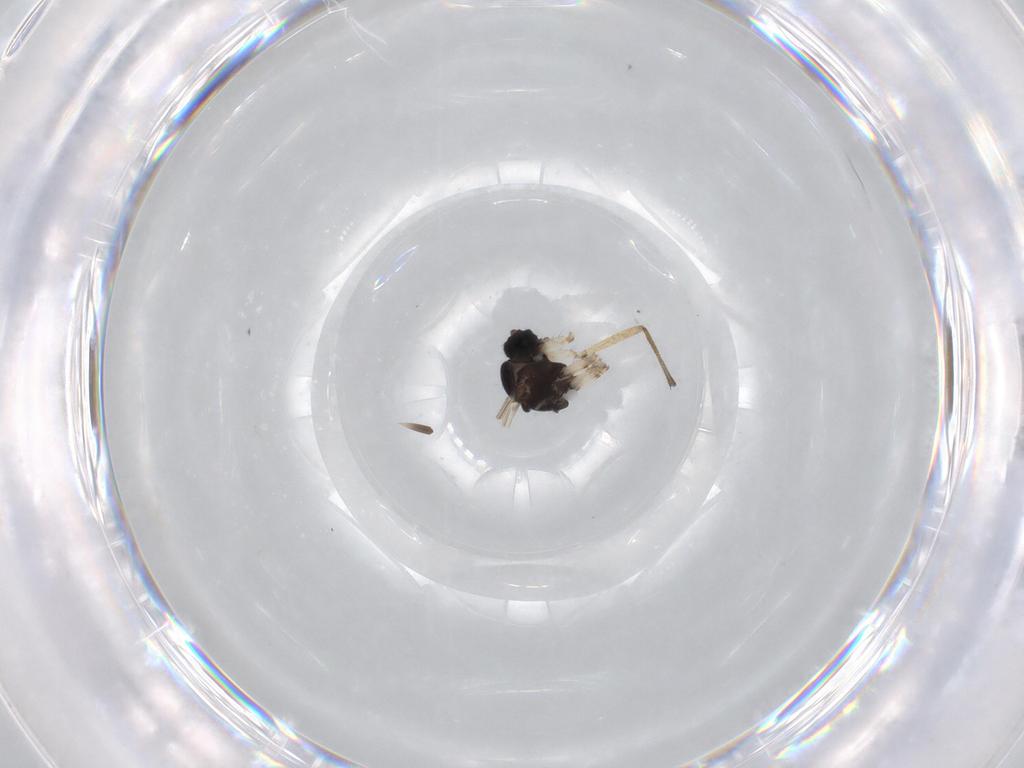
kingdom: Animalia
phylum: Arthropoda
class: Insecta
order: Diptera
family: Sciaridae
